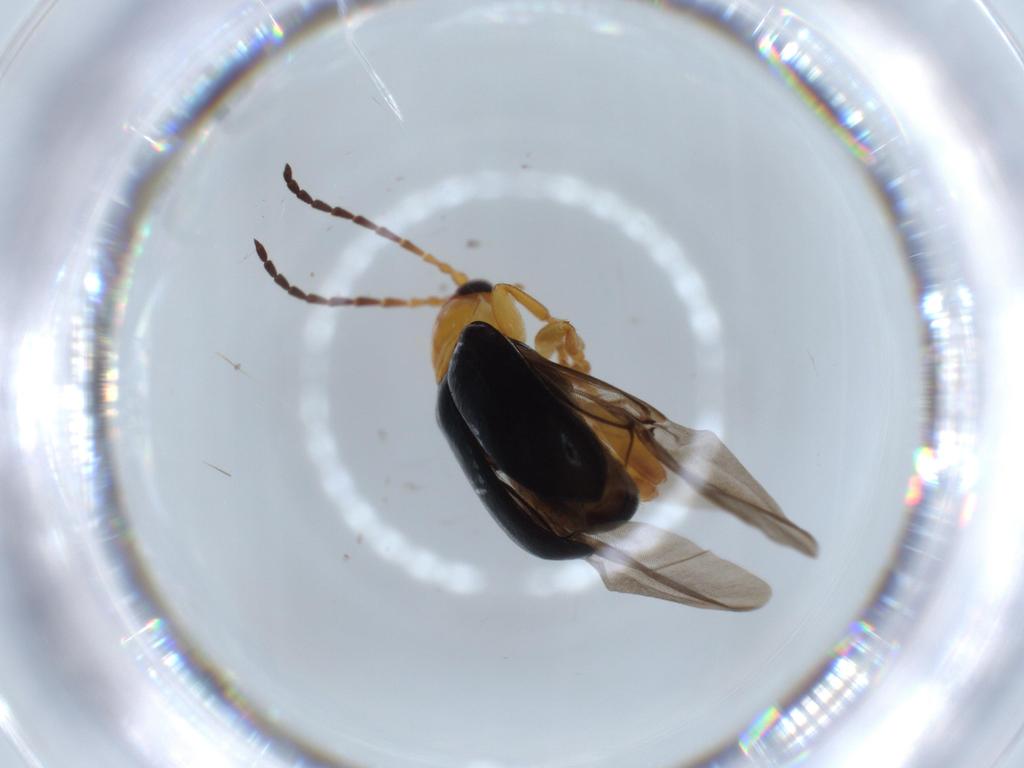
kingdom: Animalia
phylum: Arthropoda
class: Insecta
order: Coleoptera
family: Chrysomelidae
